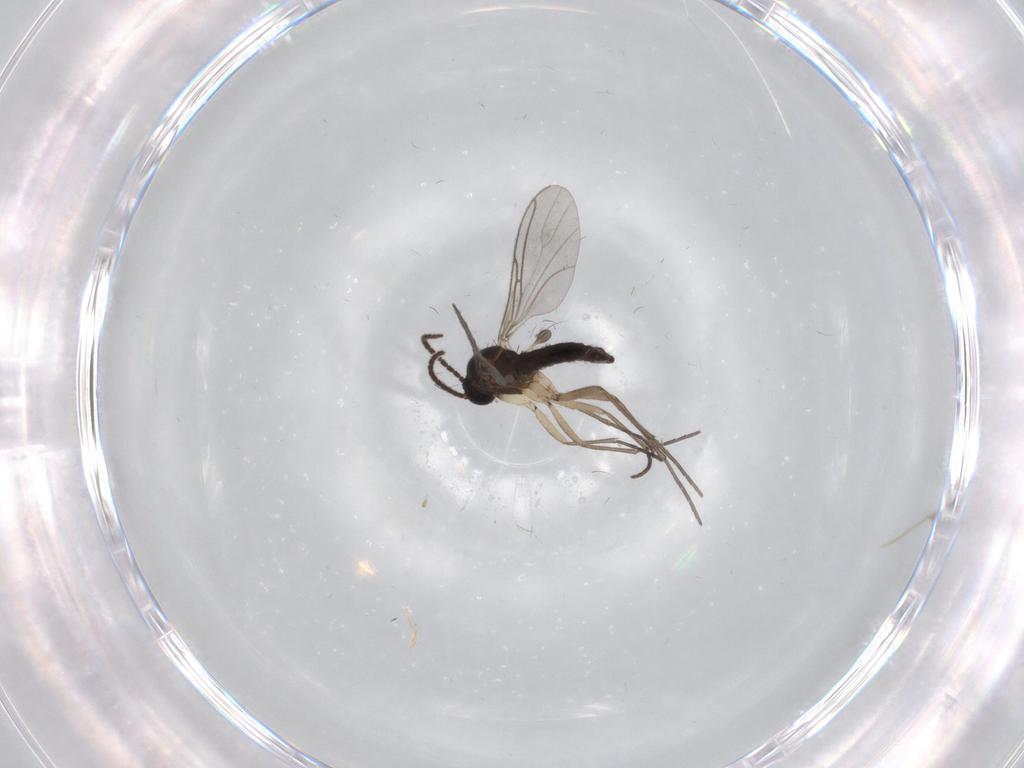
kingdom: Animalia
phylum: Arthropoda
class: Insecta
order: Diptera
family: Sciaridae
